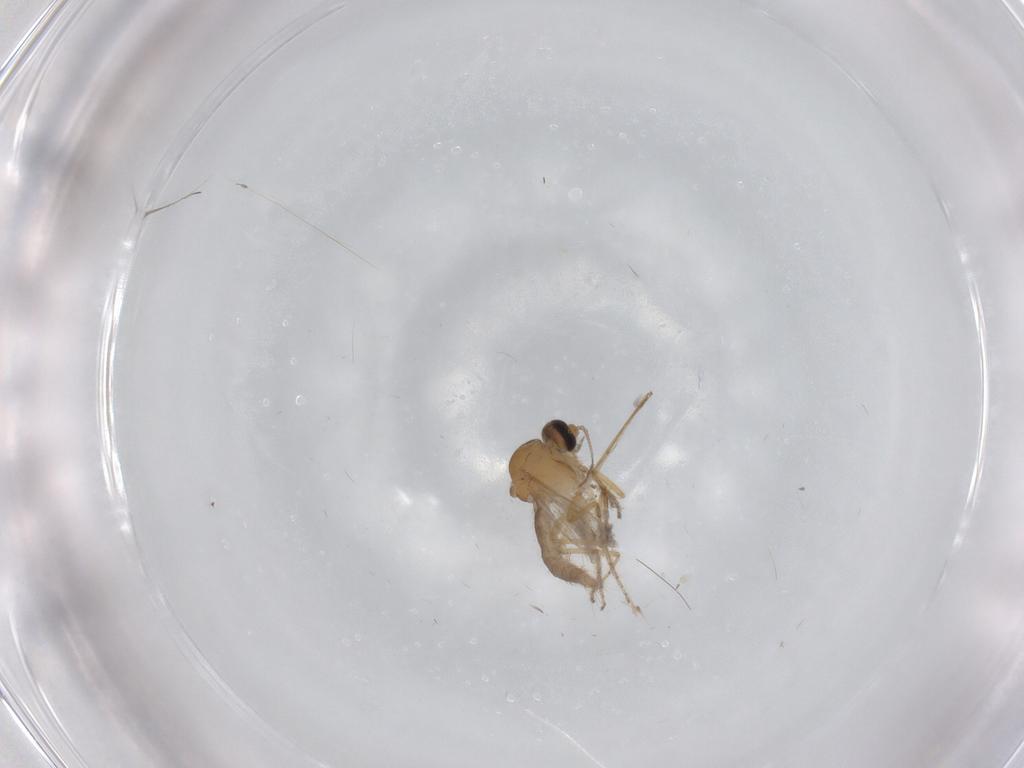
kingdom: Animalia
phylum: Arthropoda
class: Insecta
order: Diptera
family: Ceratopogonidae
